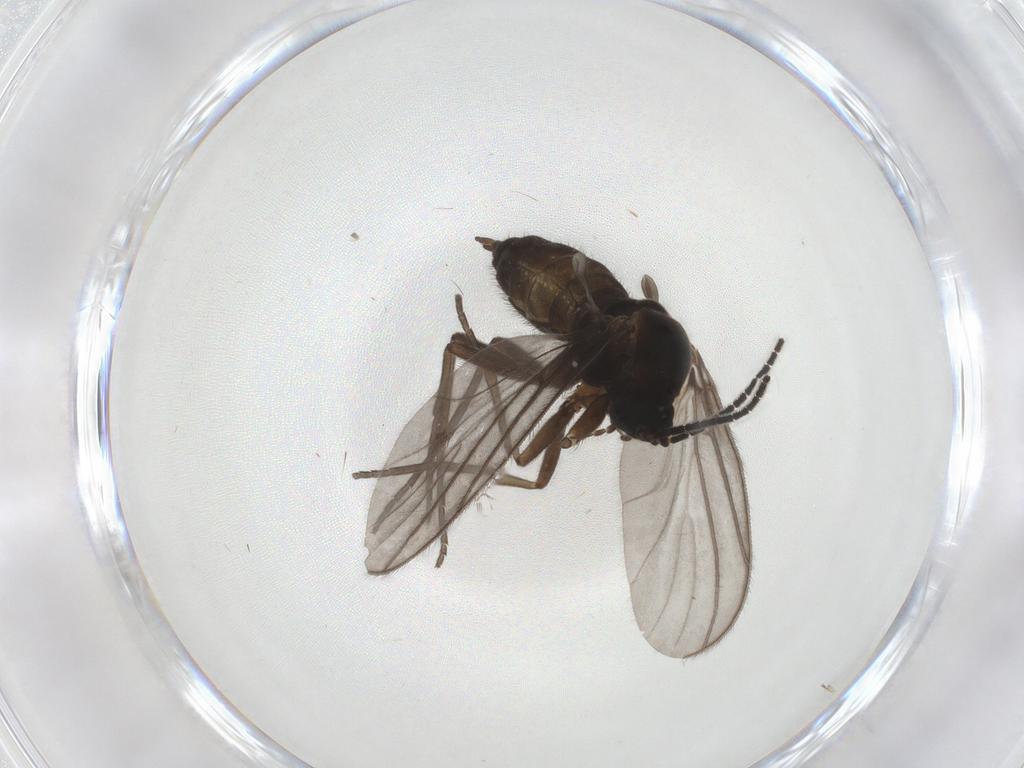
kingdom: Animalia
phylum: Arthropoda
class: Insecta
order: Diptera
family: Sciaridae
